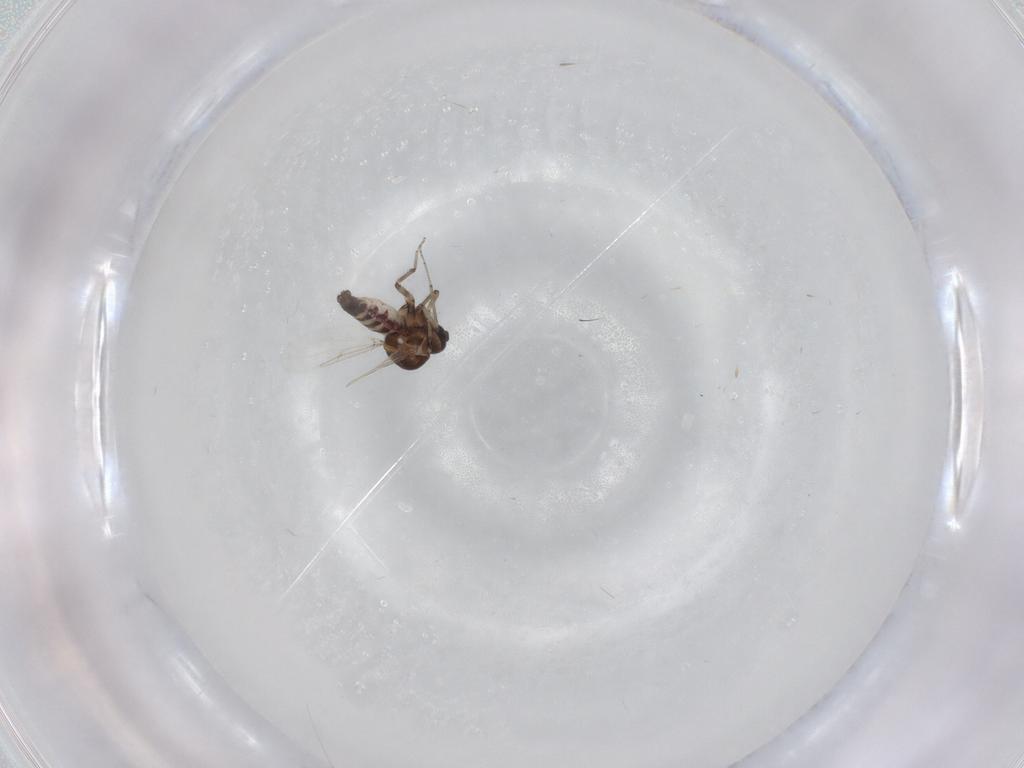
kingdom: Animalia
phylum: Arthropoda
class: Insecta
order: Diptera
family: Ceratopogonidae
